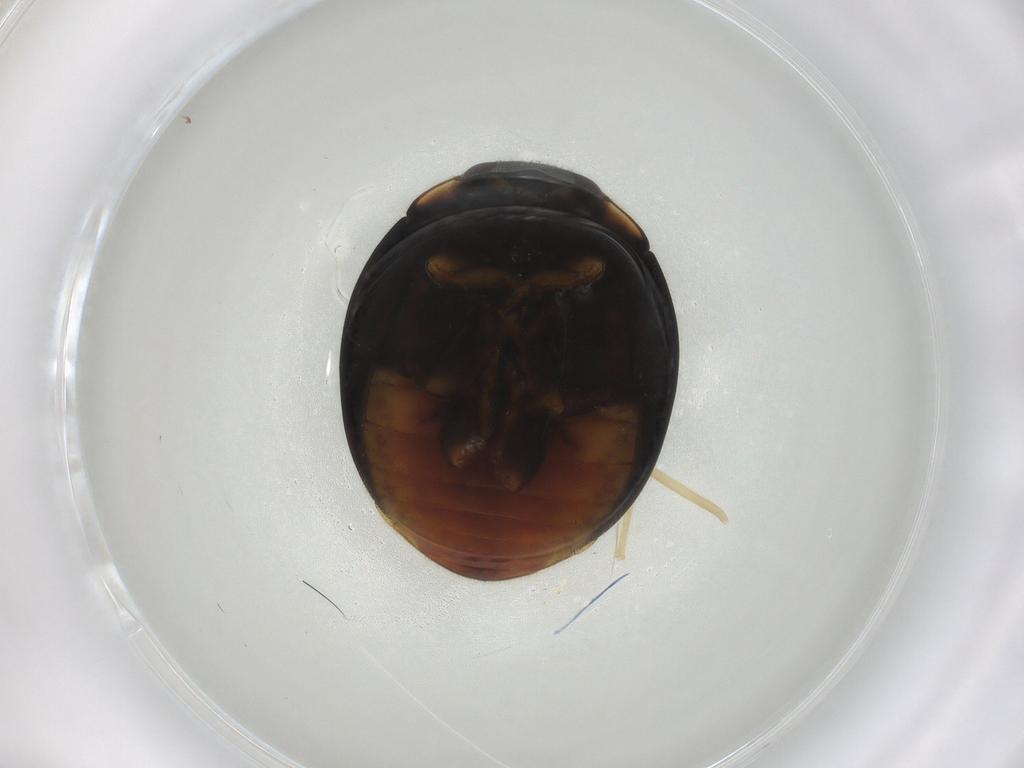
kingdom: Animalia
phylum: Arthropoda
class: Insecta
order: Coleoptera
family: Coccinellidae
